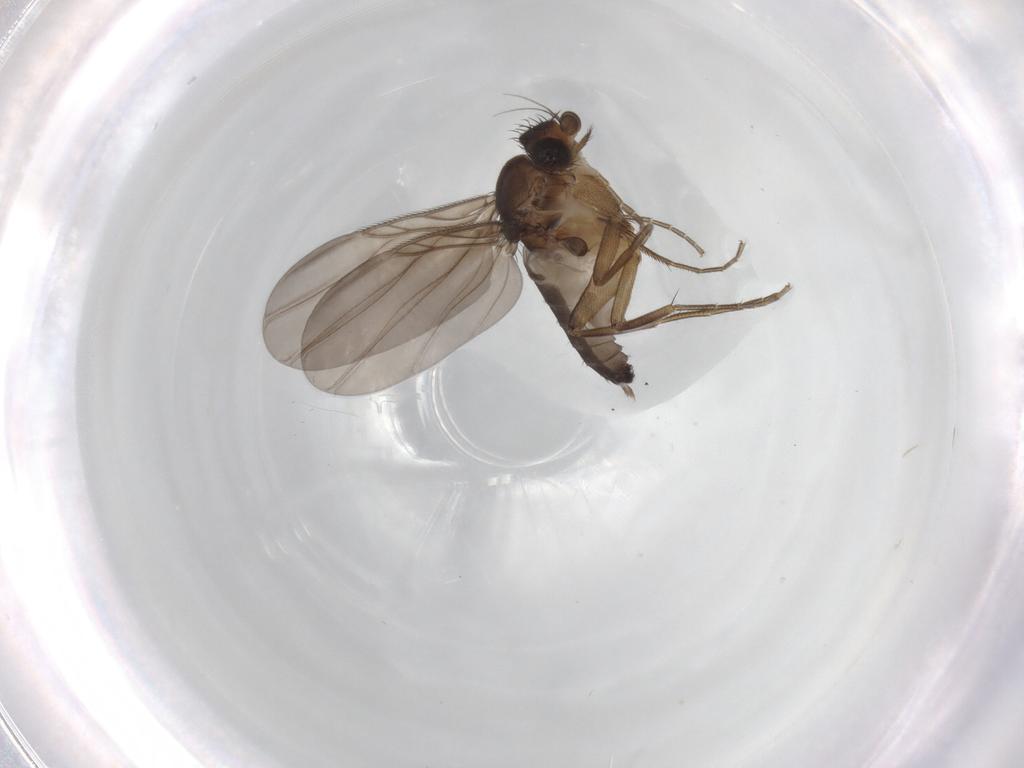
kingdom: Animalia
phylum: Arthropoda
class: Insecta
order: Diptera
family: Phoridae
